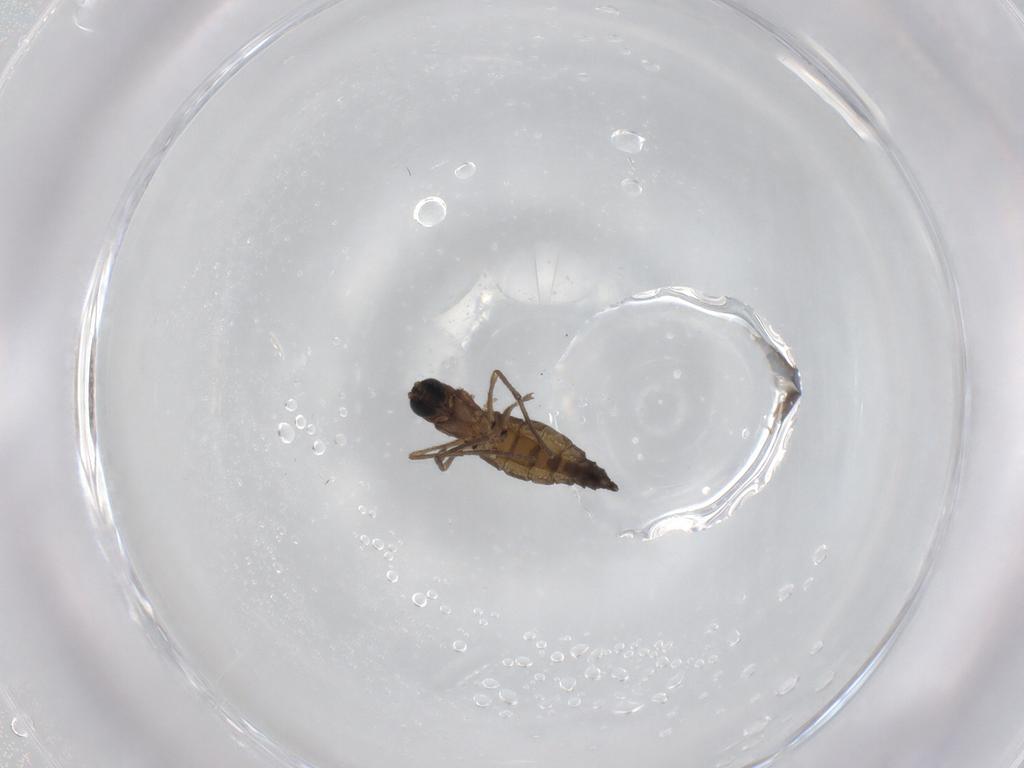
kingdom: Animalia
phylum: Arthropoda
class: Insecta
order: Diptera
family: Sciaridae
